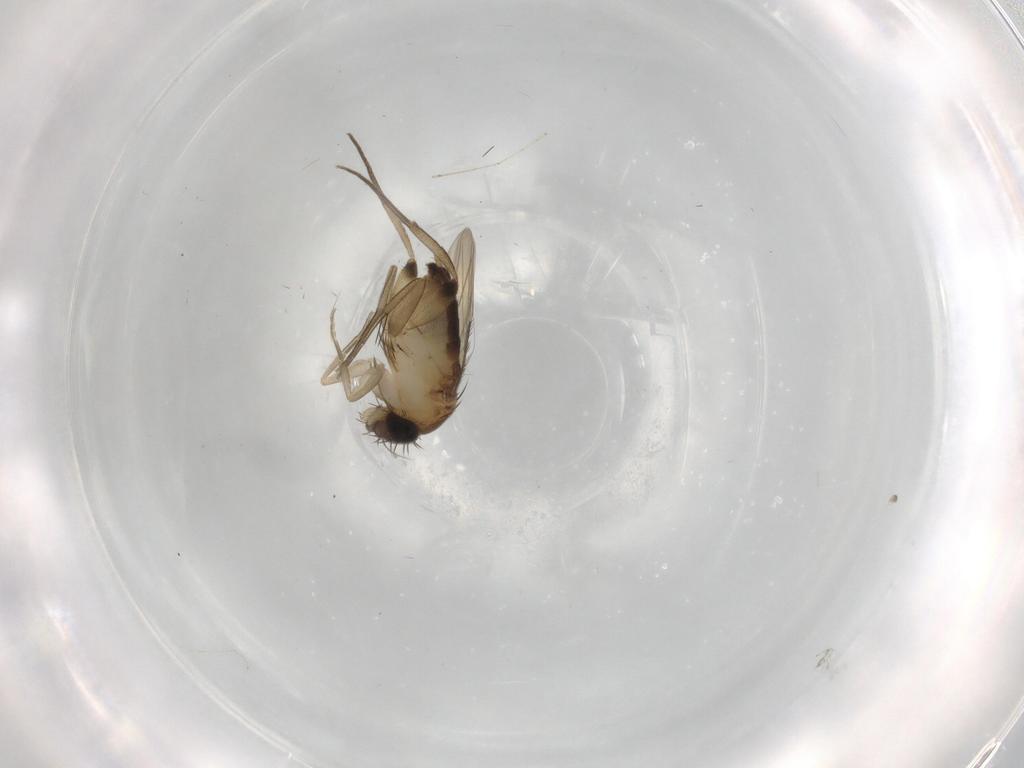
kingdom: Animalia
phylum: Arthropoda
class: Insecta
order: Diptera
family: Phoridae
